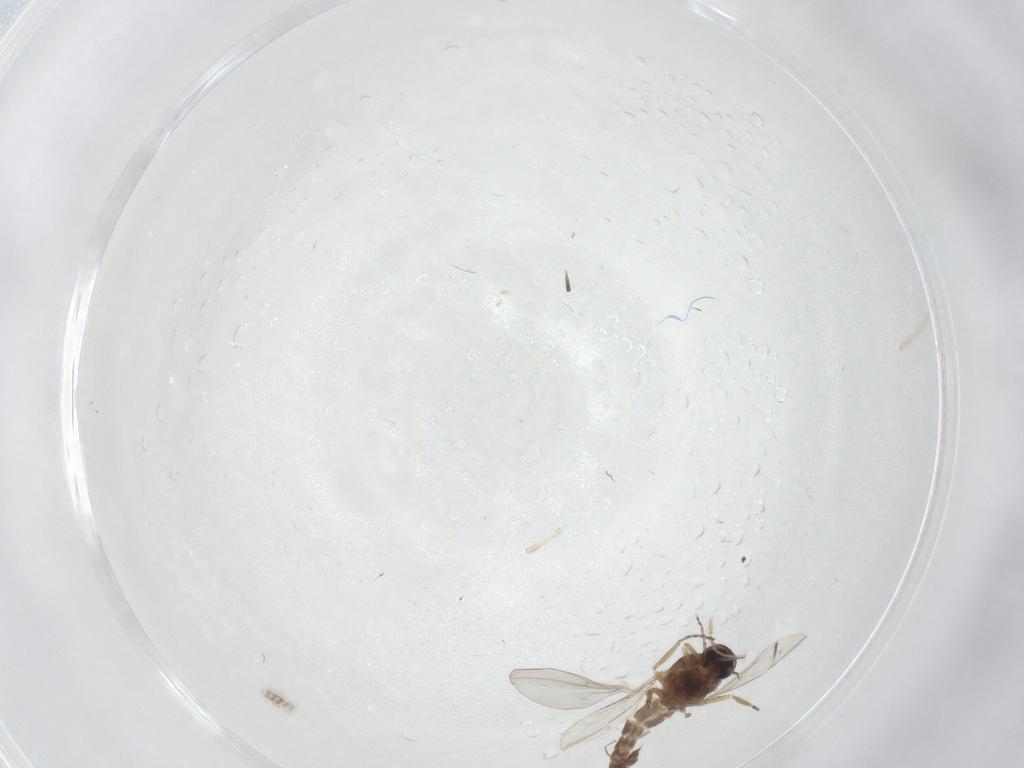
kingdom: Animalia
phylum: Arthropoda
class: Insecta
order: Diptera
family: Ceratopogonidae
